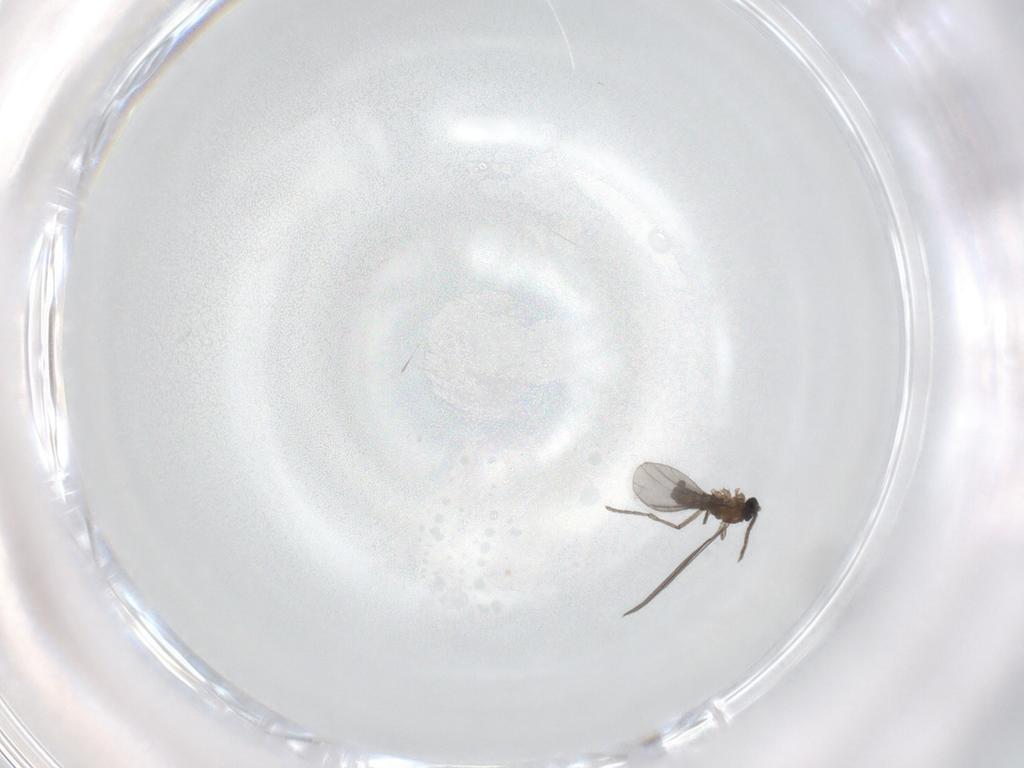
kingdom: Animalia
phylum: Arthropoda
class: Insecta
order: Diptera
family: Sciaridae
